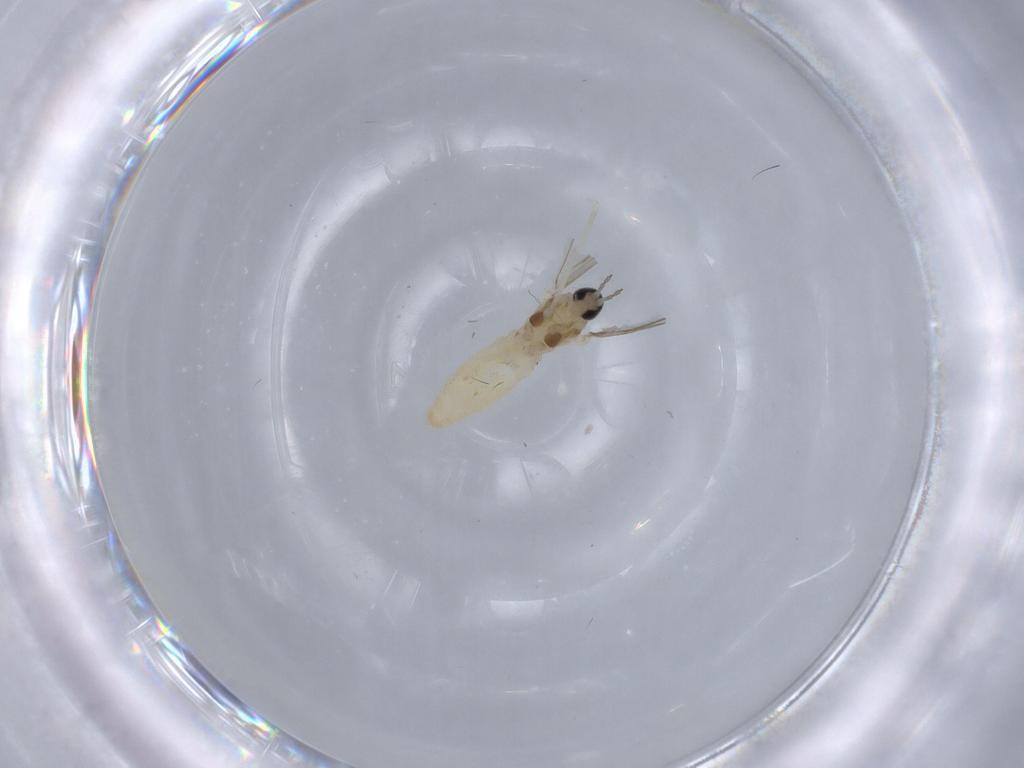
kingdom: Animalia
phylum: Arthropoda
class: Insecta
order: Diptera
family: Cecidomyiidae
